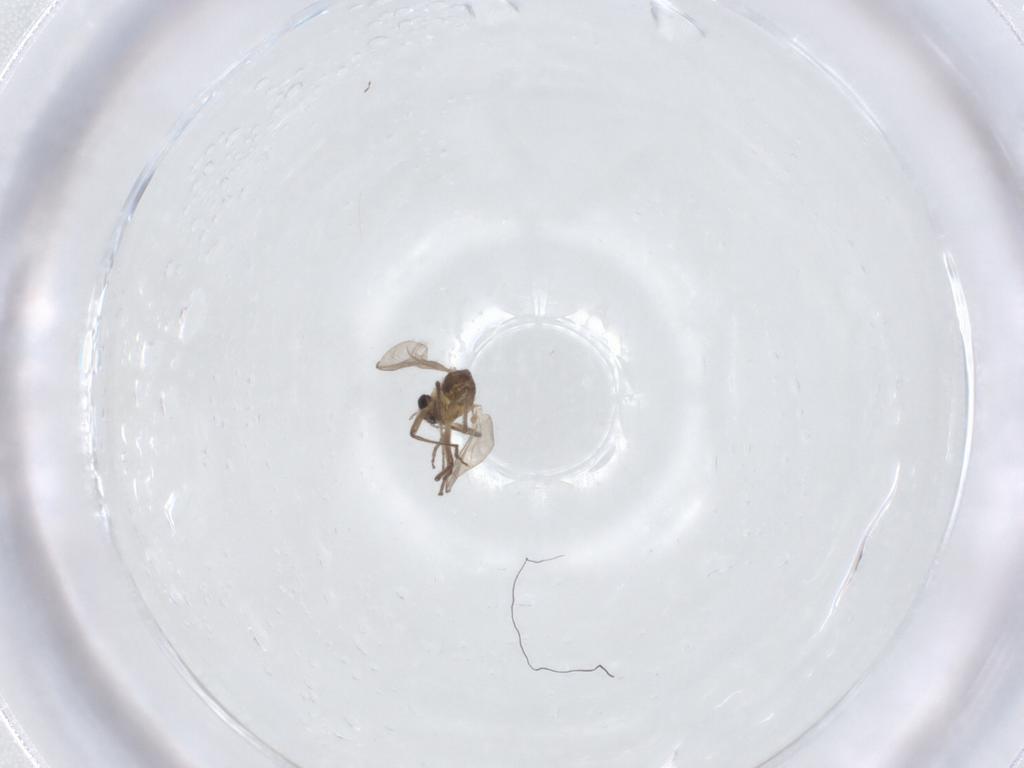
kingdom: Animalia
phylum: Arthropoda
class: Insecta
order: Diptera
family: Chironomidae
